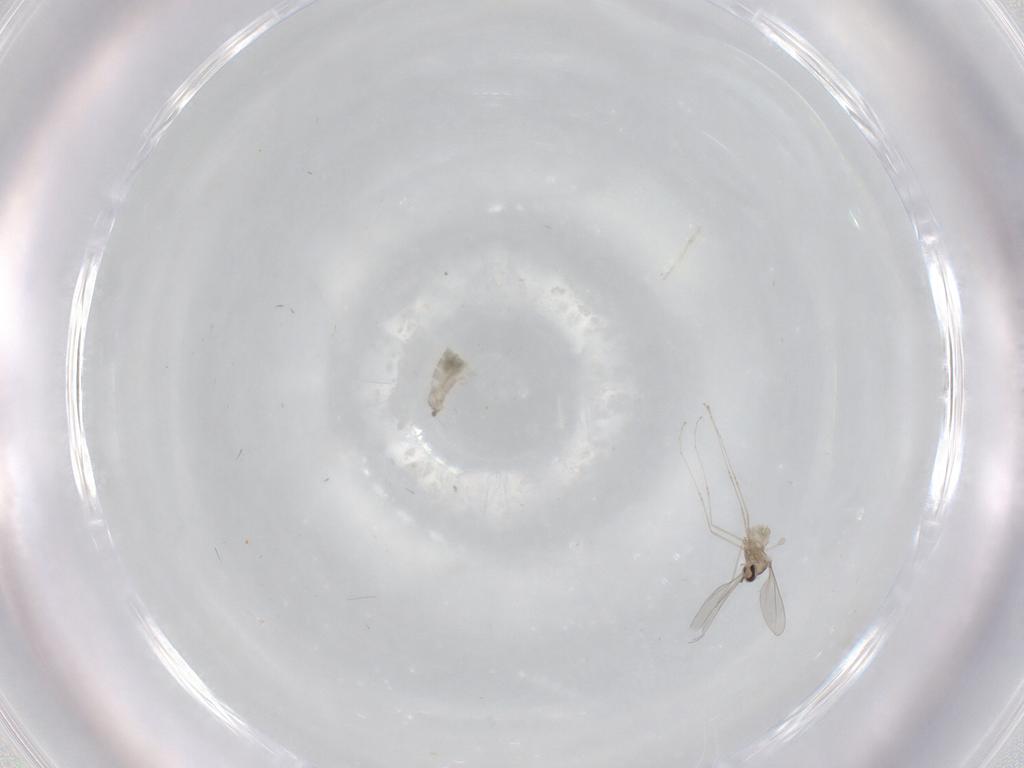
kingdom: Animalia
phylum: Arthropoda
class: Insecta
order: Diptera
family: Cecidomyiidae
